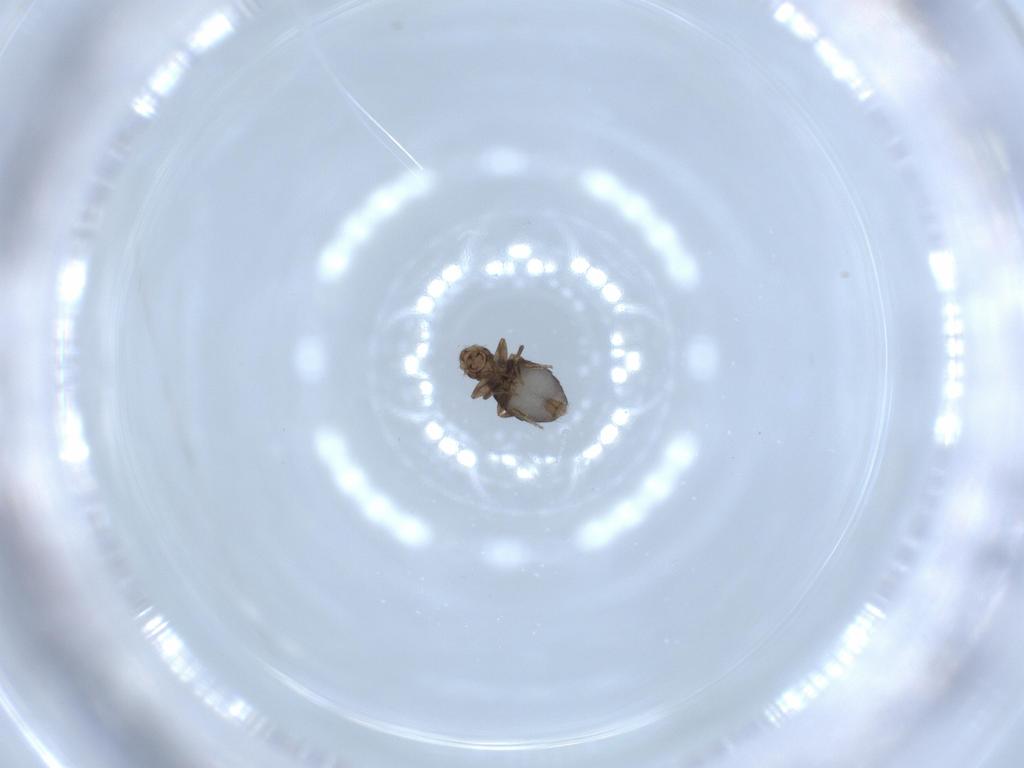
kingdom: Animalia
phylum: Arthropoda
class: Insecta
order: Diptera
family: Phoridae
